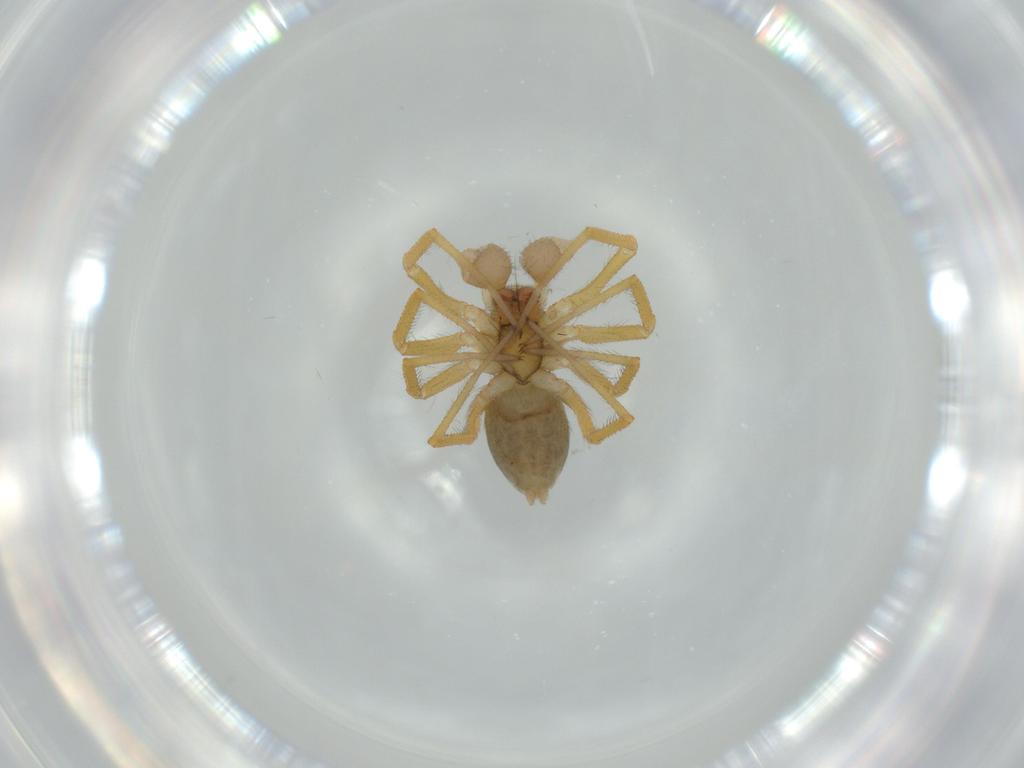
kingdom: Animalia
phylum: Arthropoda
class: Arachnida
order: Araneae
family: Linyphiidae
